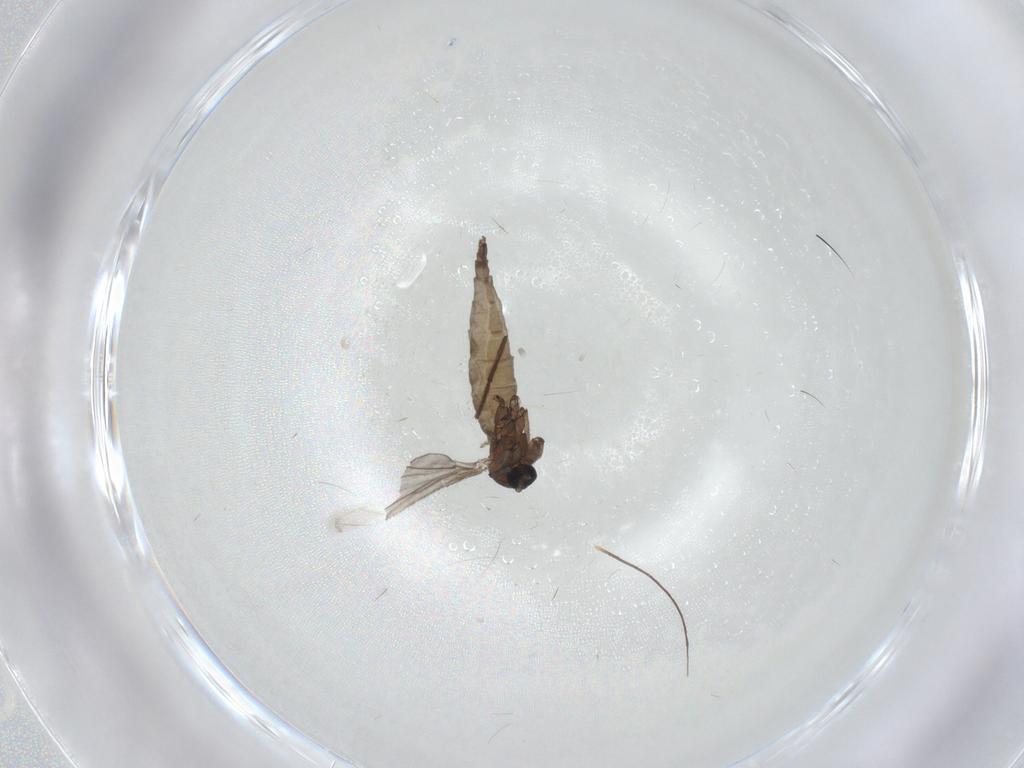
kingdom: Animalia
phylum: Arthropoda
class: Insecta
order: Diptera
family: Sciaridae
